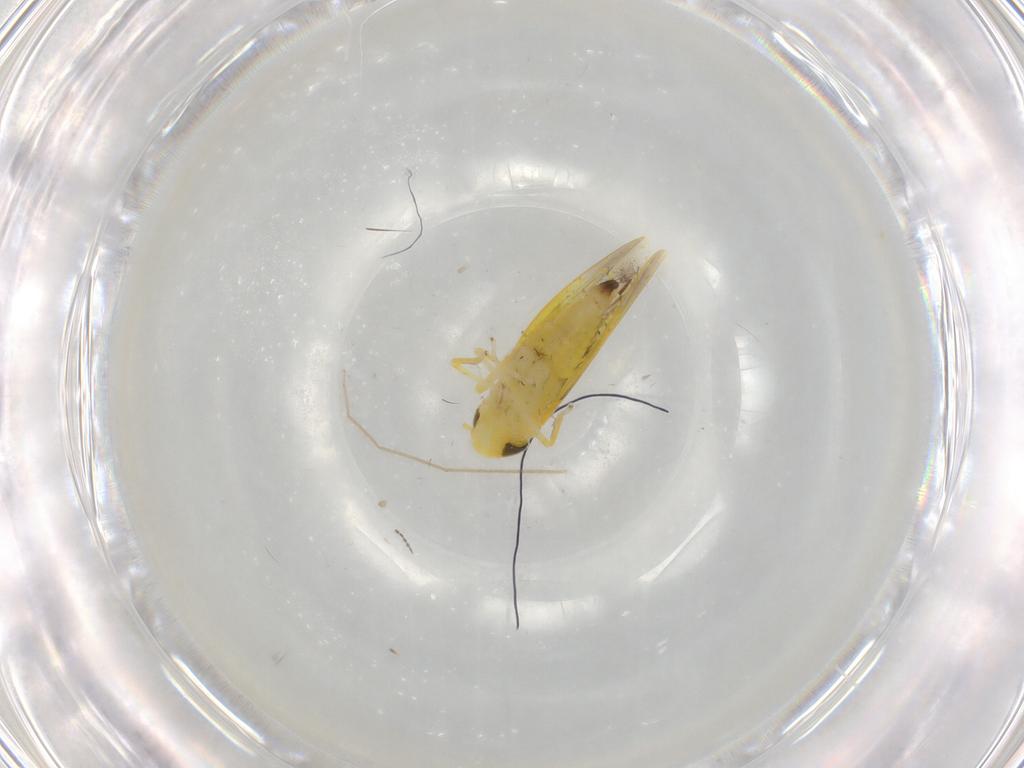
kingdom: Animalia
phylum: Arthropoda
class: Insecta
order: Hemiptera
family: Cicadellidae
